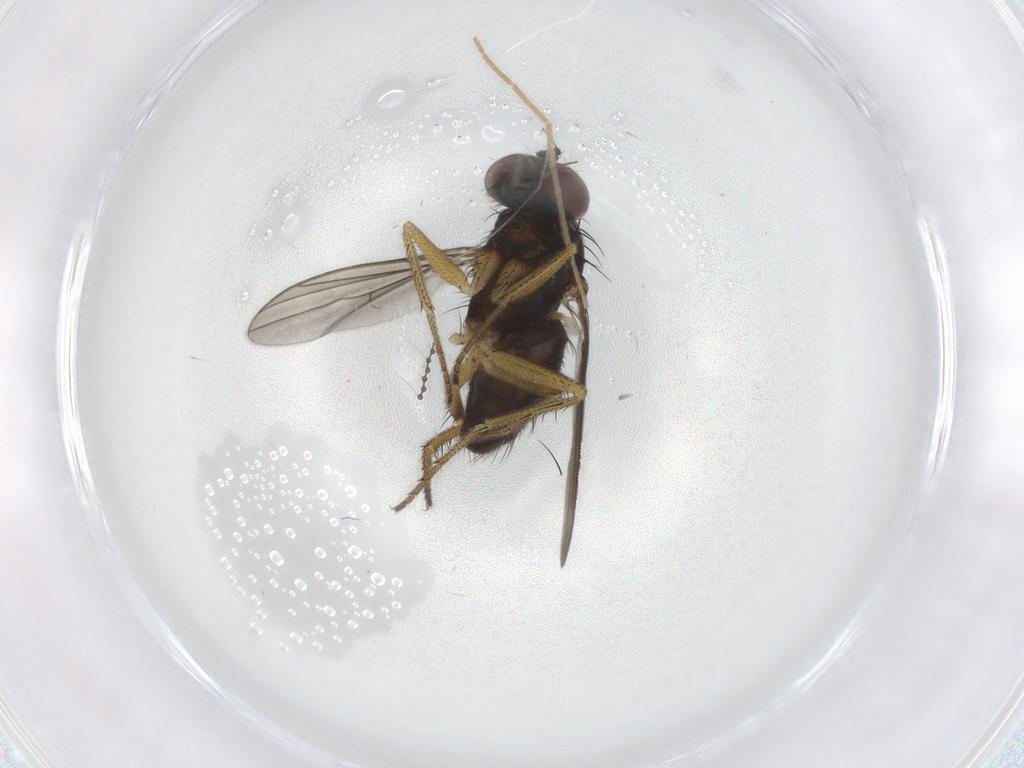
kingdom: Animalia
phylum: Arthropoda
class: Insecta
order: Diptera
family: Dolichopodidae
